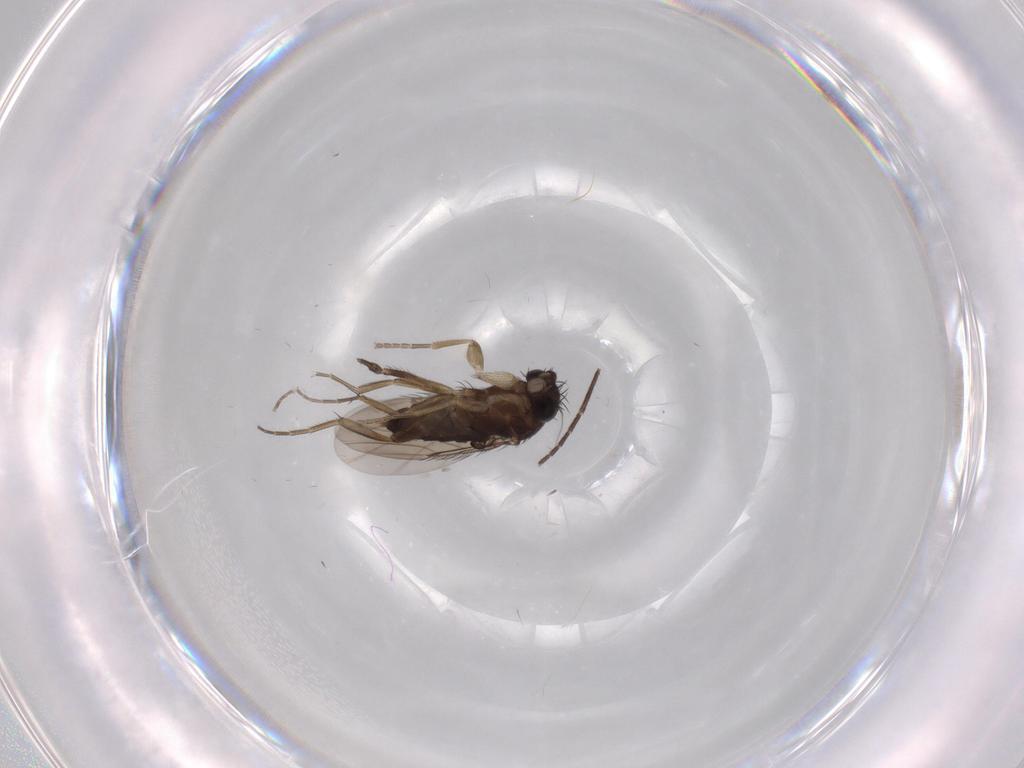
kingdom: Animalia
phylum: Arthropoda
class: Insecta
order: Diptera
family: Phoridae
